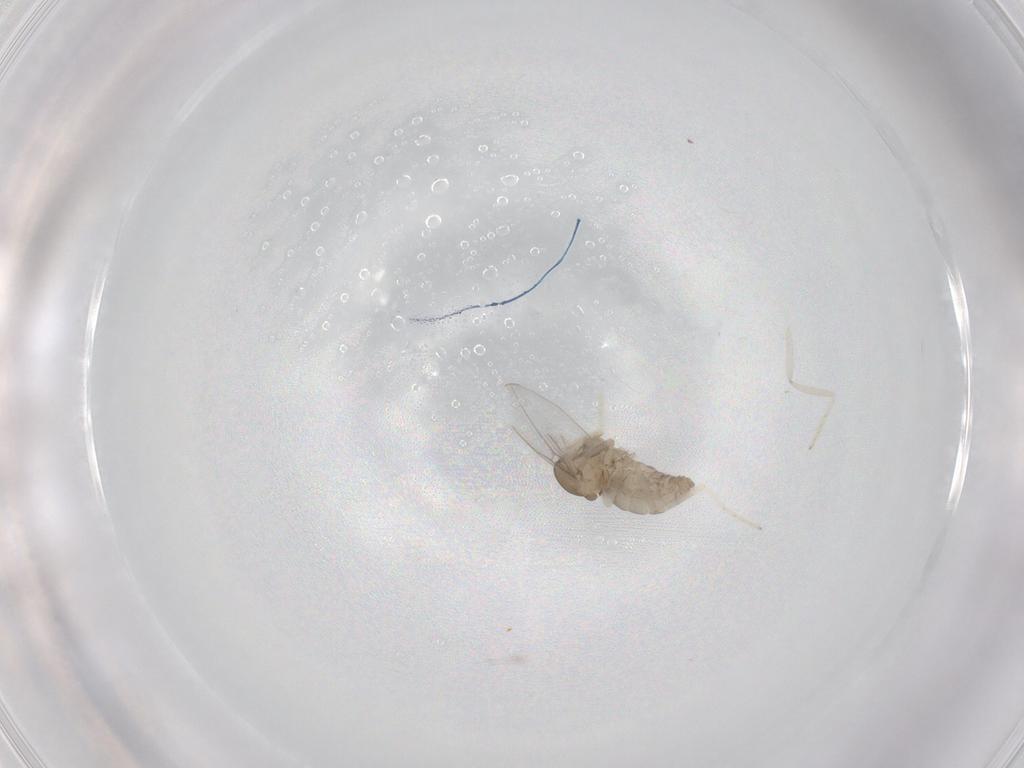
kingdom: Animalia
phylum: Arthropoda
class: Insecta
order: Diptera
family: Cecidomyiidae
